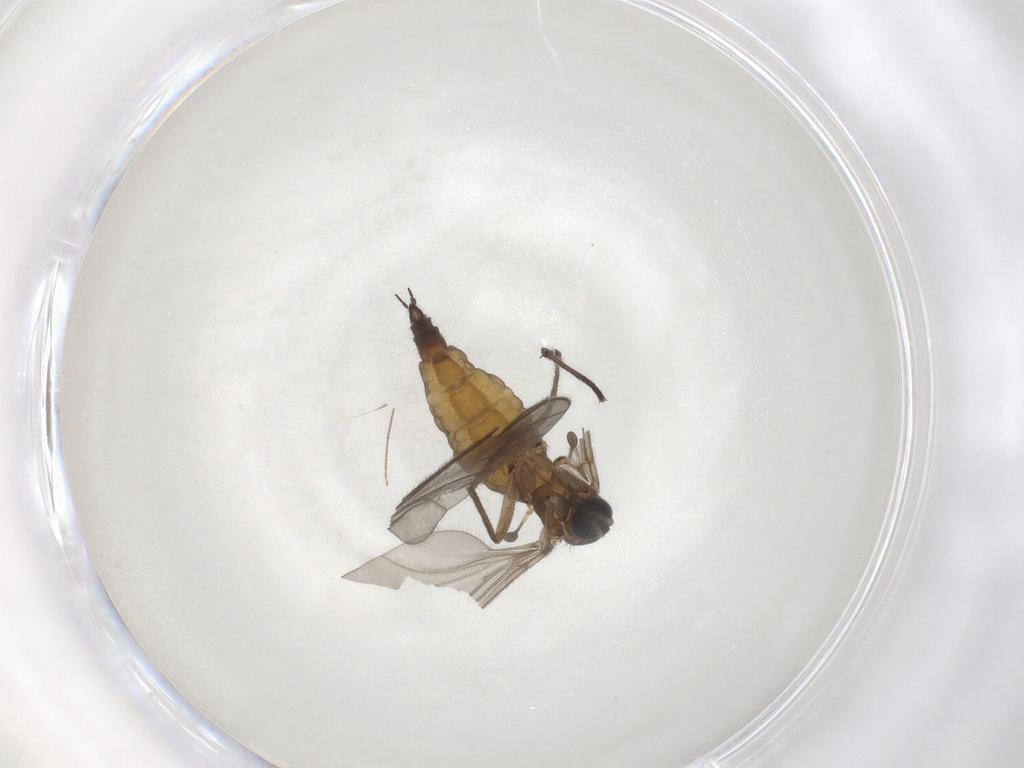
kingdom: Animalia
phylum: Arthropoda
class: Insecta
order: Diptera
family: Sciaridae
